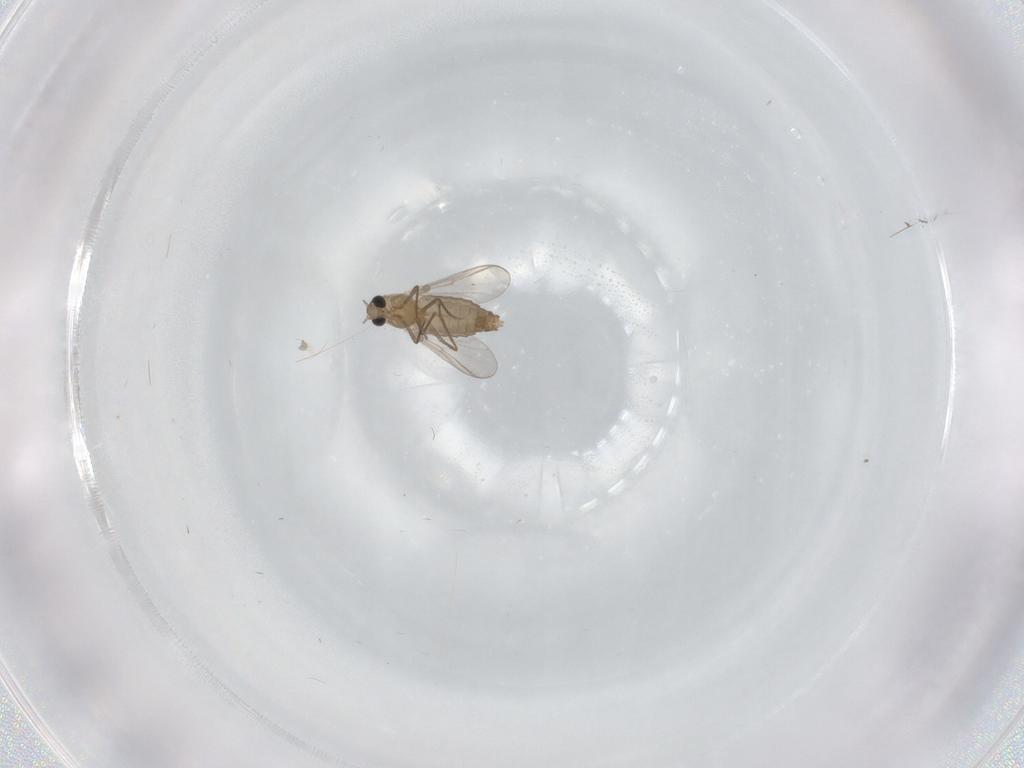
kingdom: Animalia
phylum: Arthropoda
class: Insecta
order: Diptera
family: Chironomidae
